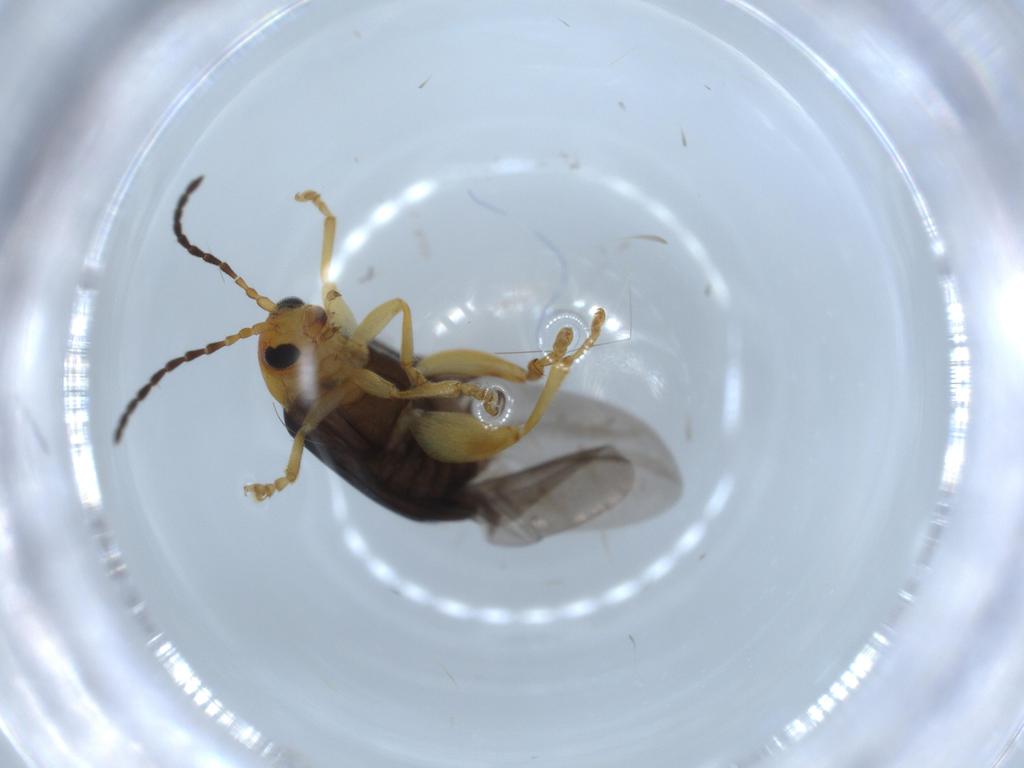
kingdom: Animalia
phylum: Arthropoda
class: Insecta
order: Coleoptera
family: Chrysomelidae
